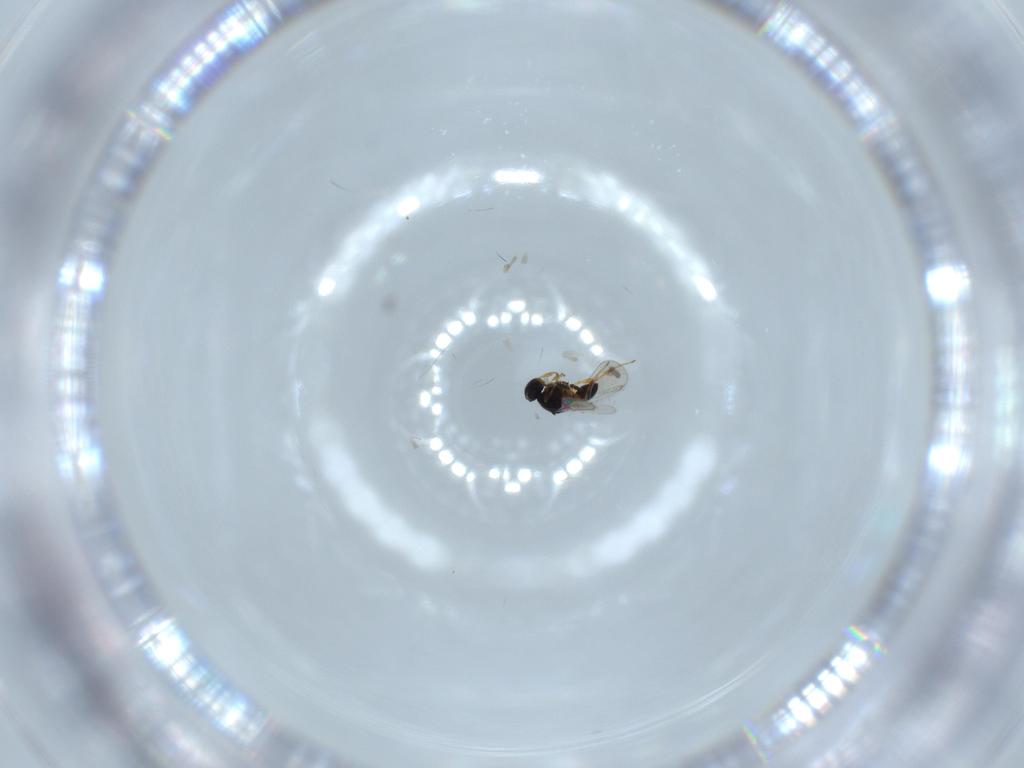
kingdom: Animalia
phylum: Arthropoda
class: Insecta
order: Hymenoptera
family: Platygastridae
